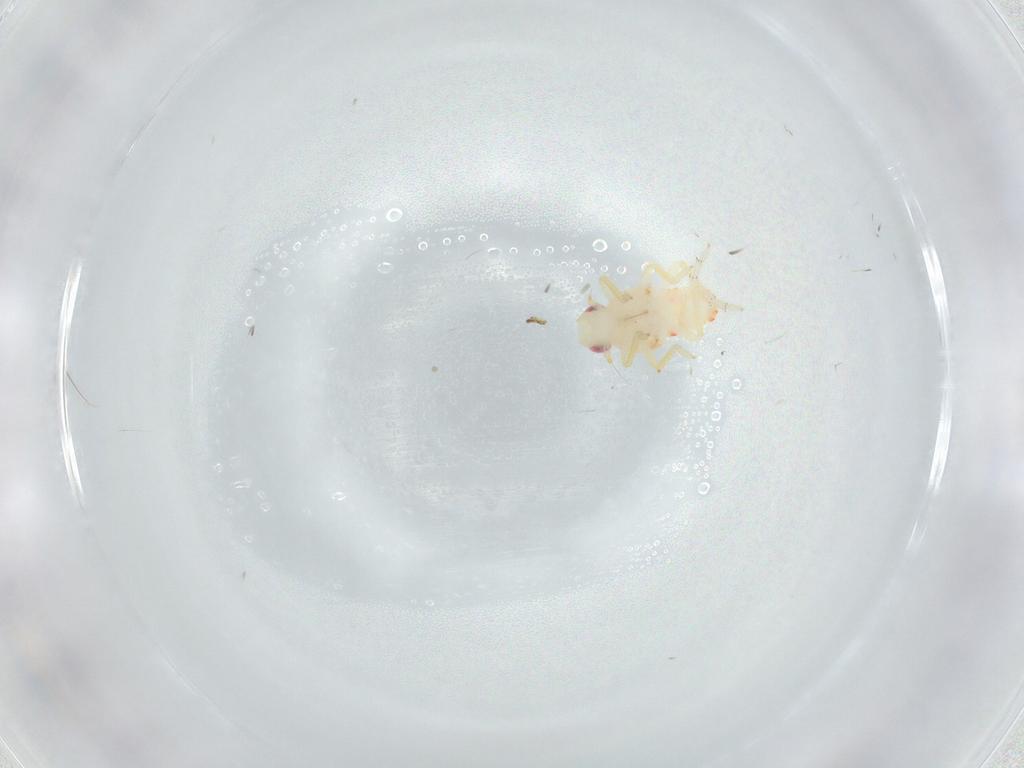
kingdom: Animalia
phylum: Arthropoda
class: Insecta
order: Hemiptera
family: Tropiduchidae
